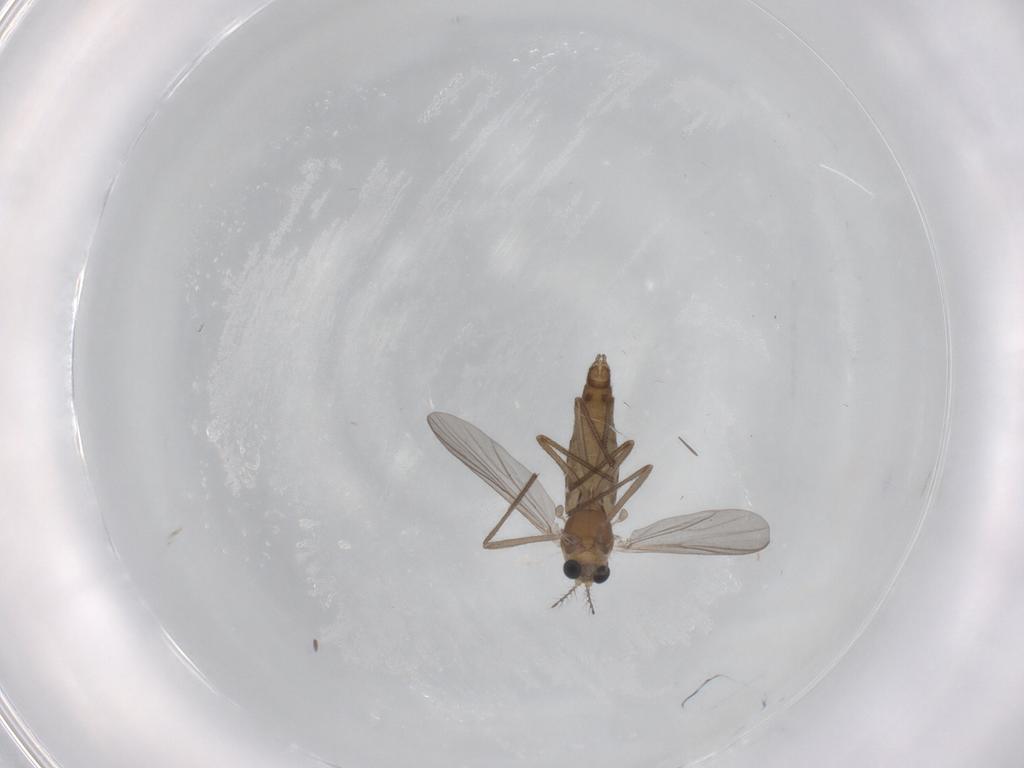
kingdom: Animalia
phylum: Arthropoda
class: Insecta
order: Diptera
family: Chironomidae
